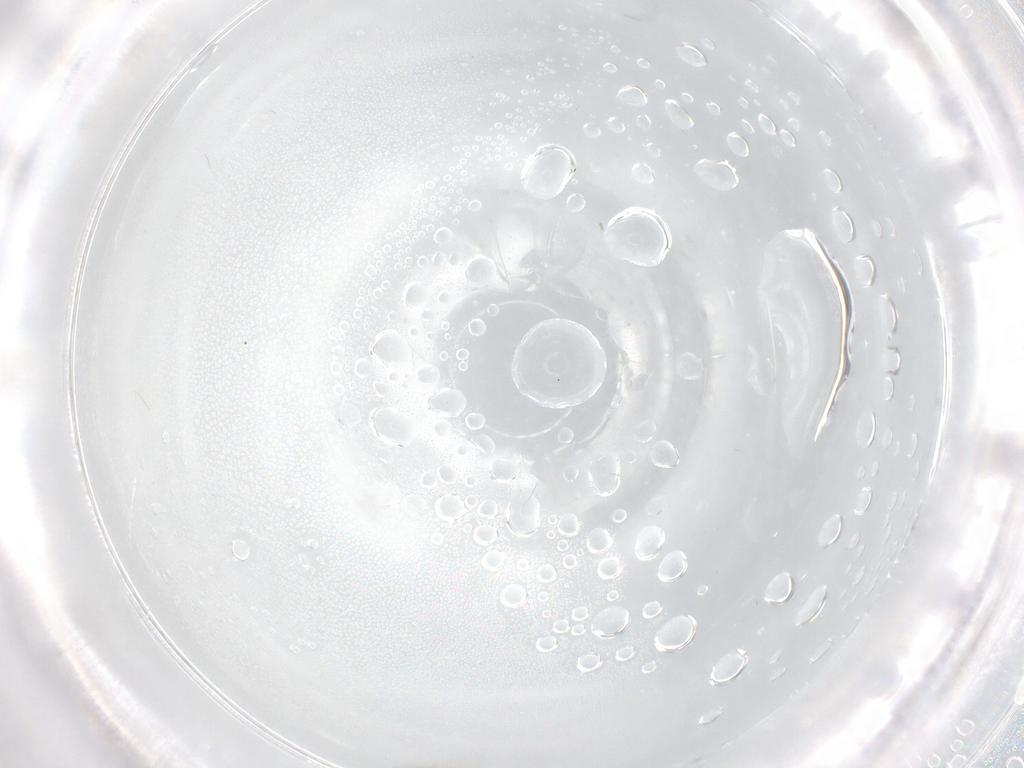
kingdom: Animalia
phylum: Arthropoda
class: Insecta
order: Hymenoptera
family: Scelionidae
